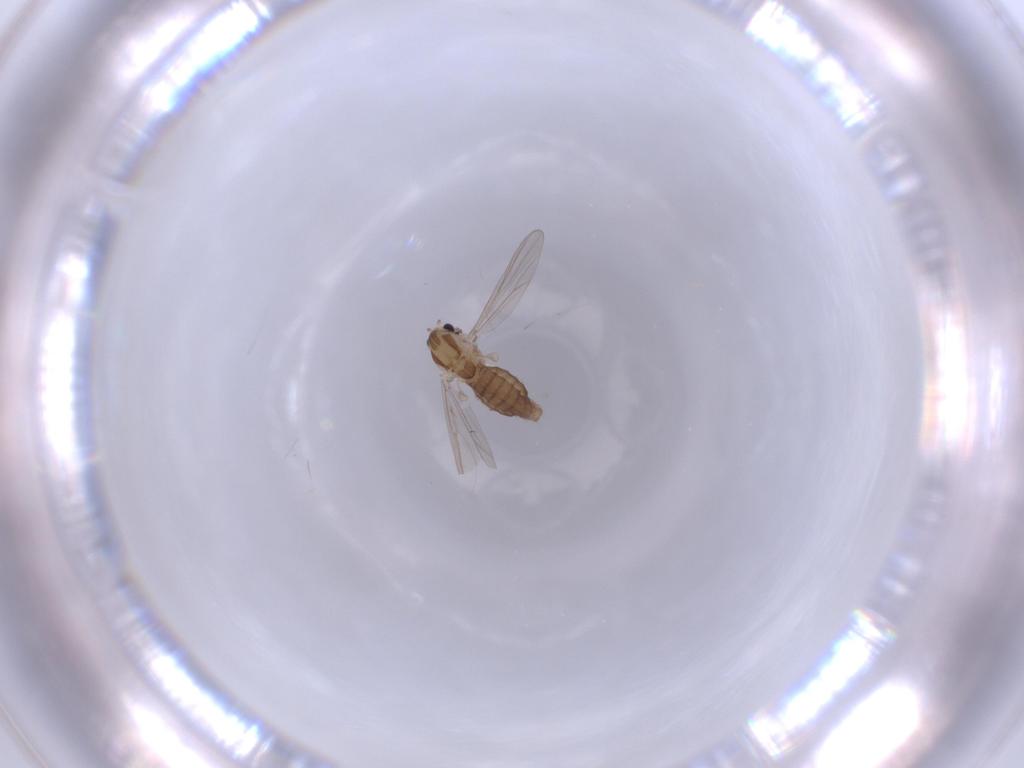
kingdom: Animalia
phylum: Arthropoda
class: Insecta
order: Diptera
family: Chironomidae
